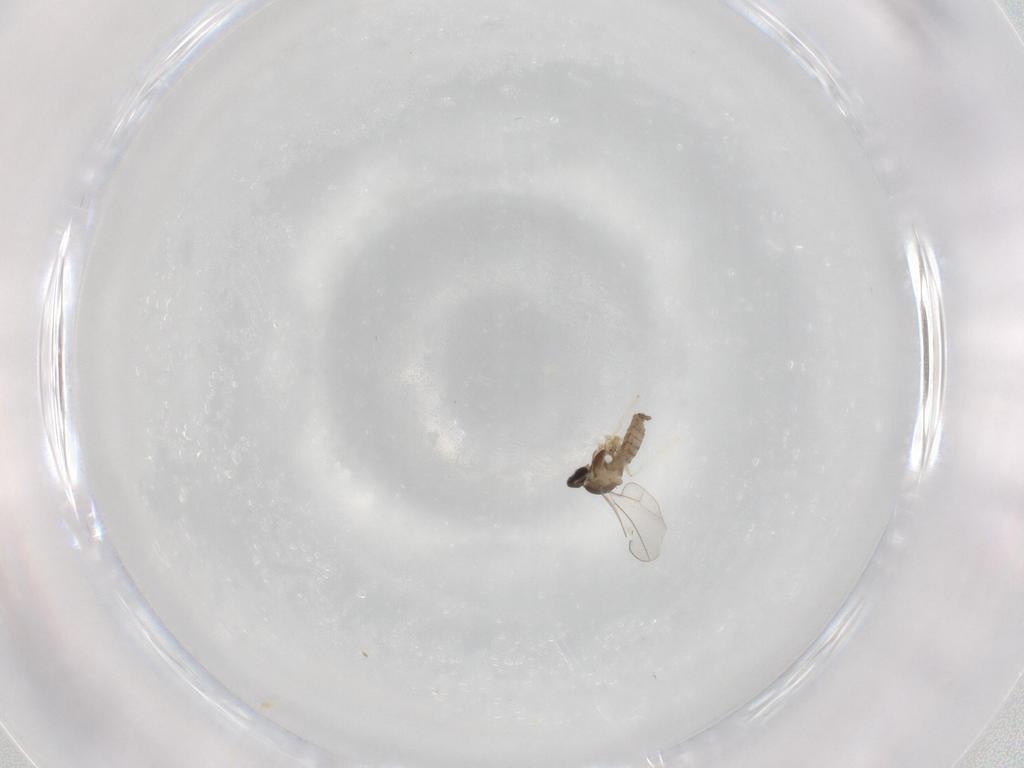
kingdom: Animalia
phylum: Arthropoda
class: Insecta
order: Diptera
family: Cecidomyiidae
